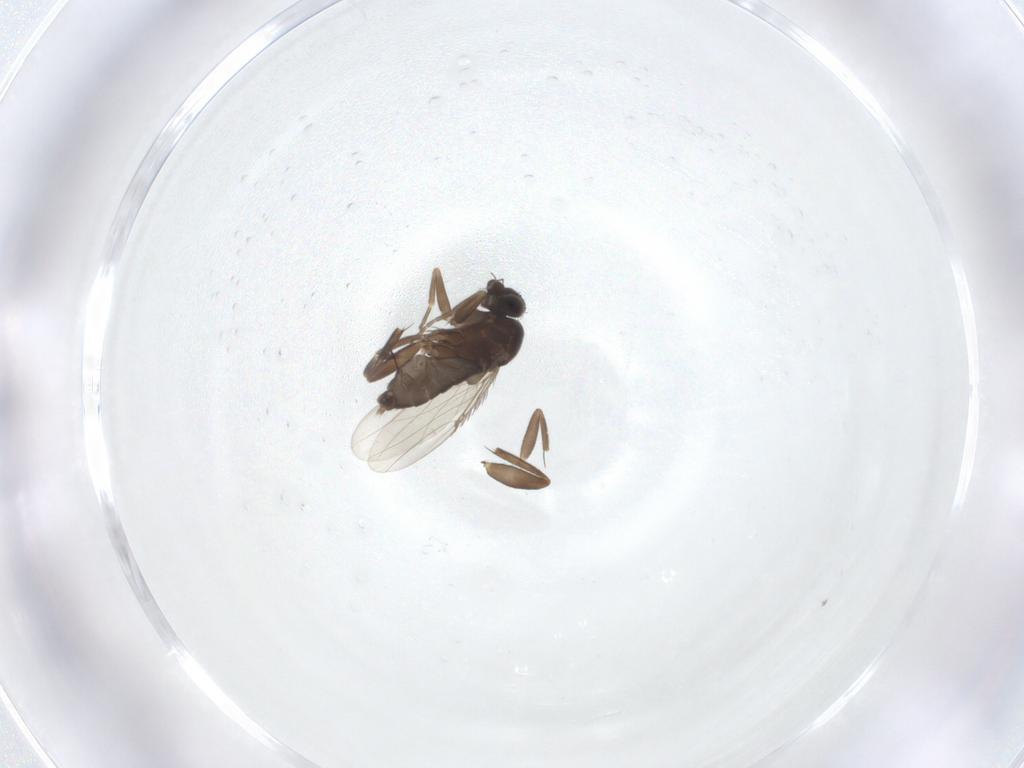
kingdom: Animalia
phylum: Arthropoda
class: Insecta
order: Diptera
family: Phoridae
